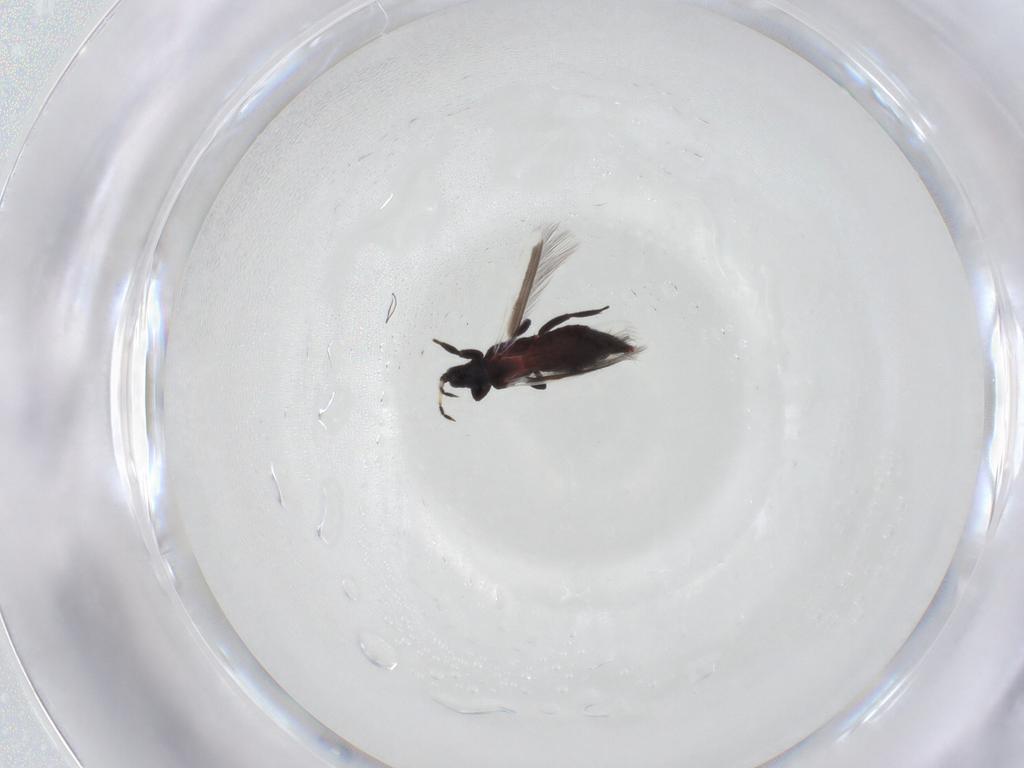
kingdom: Animalia
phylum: Arthropoda
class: Insecta
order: Thysanoptera
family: Aeolothripidae
